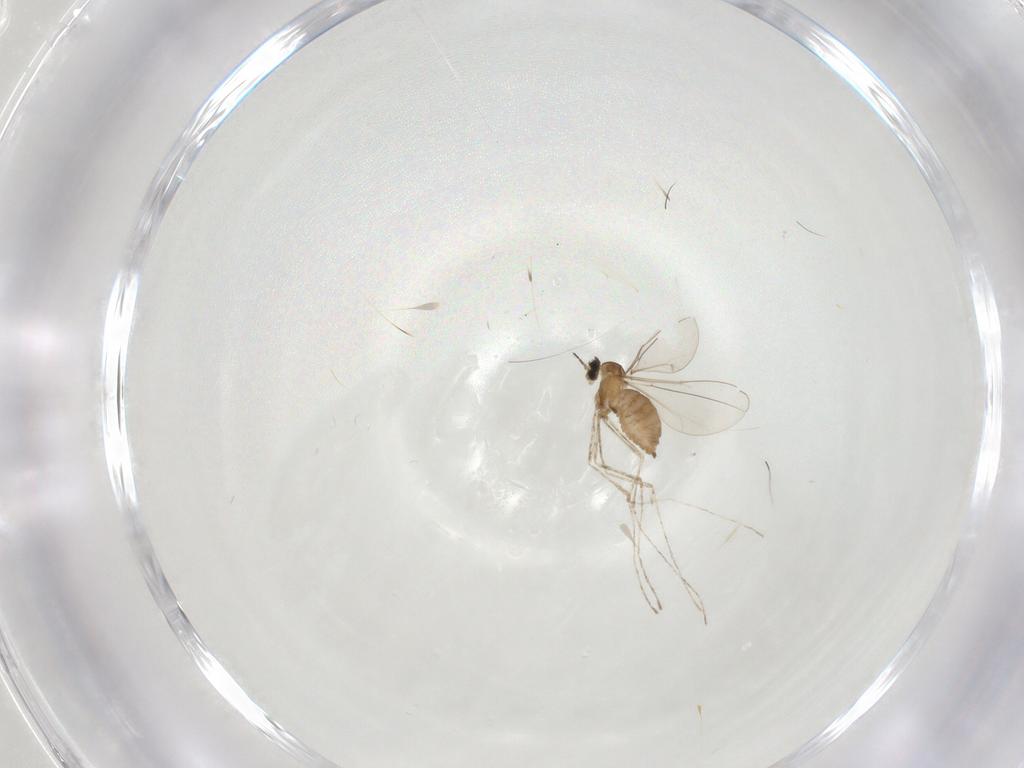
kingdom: Animalia
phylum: Arthropoda
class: Insecta
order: Diptera
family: Cecidomyiidae
